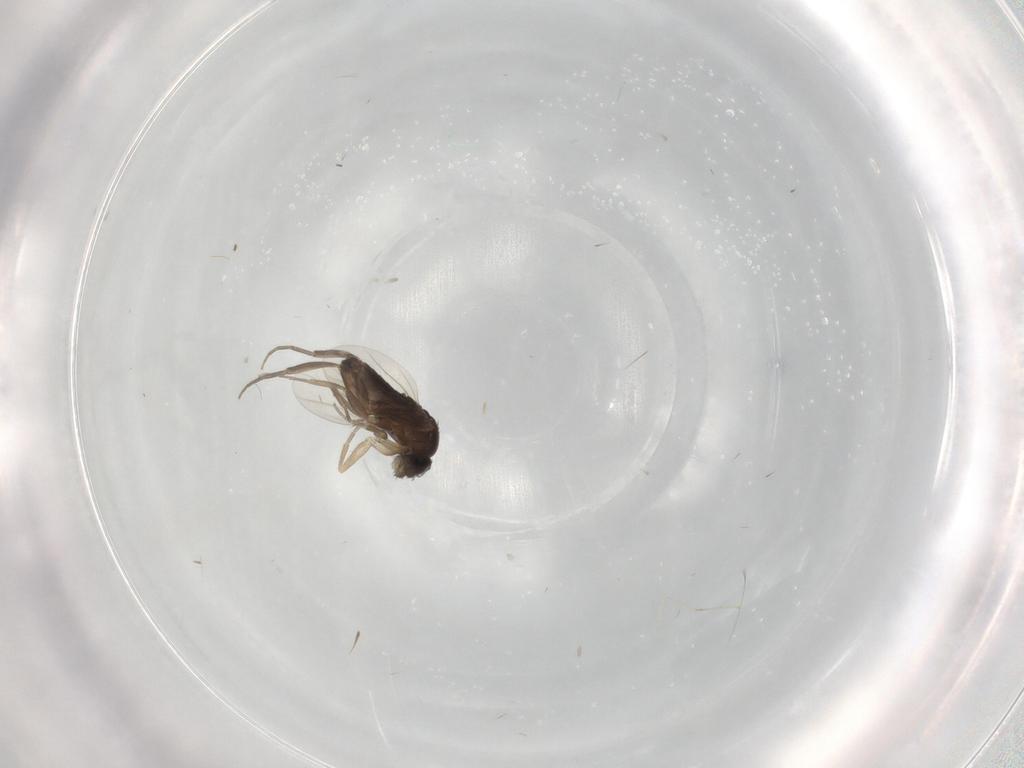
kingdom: Animalia
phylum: Arthropoda
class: Insecta
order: Diptera
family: Phoridae
